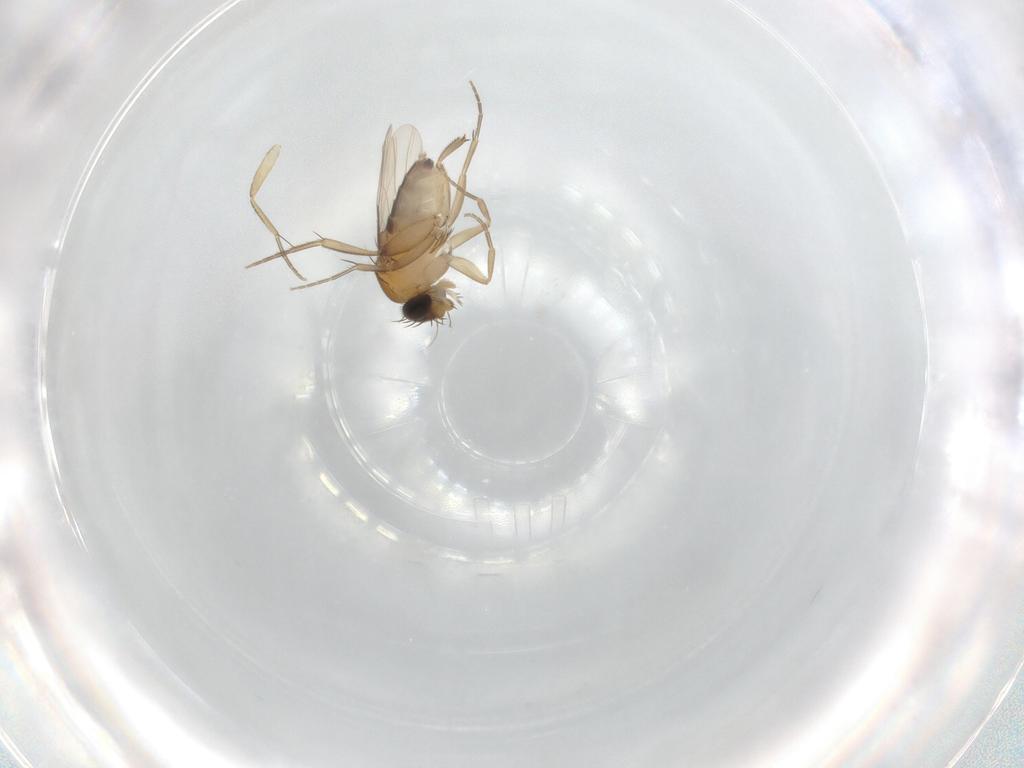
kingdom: Animalia
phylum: Arthropoda
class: Insecta
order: Diptera
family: Phoridae
